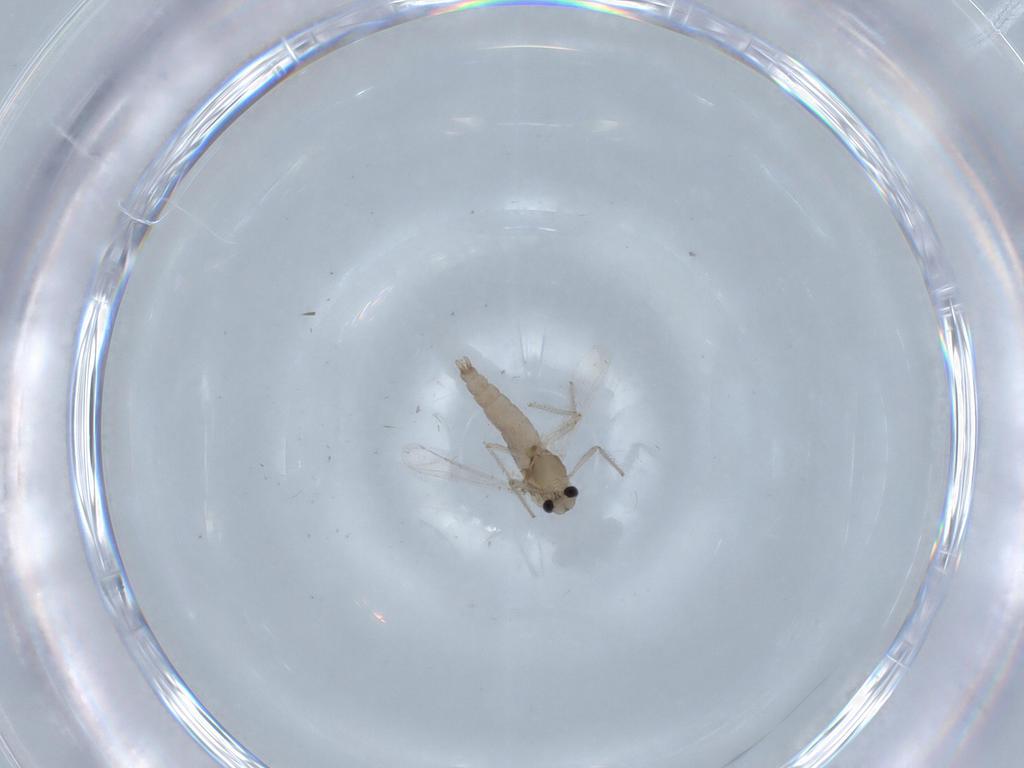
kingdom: Animalia
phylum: Arthropoda
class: Insecta
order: Diptera
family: Chironomidae
